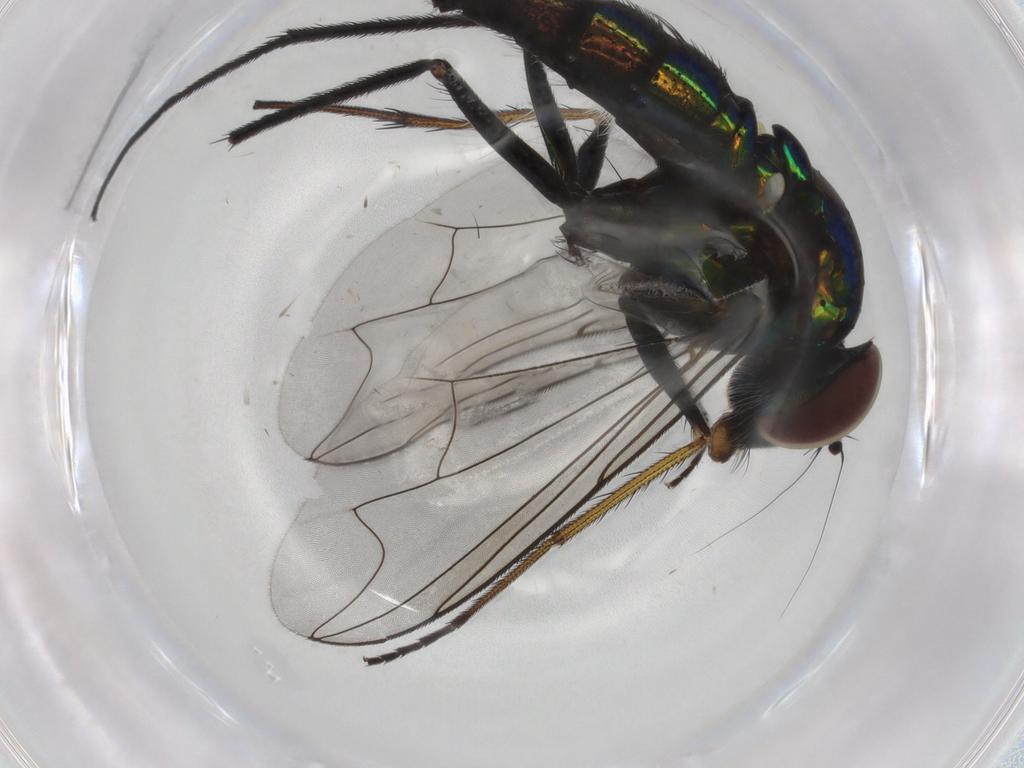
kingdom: Animalia
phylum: Arthropoda
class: Insecta
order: Diptera
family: Dolichopodidae
